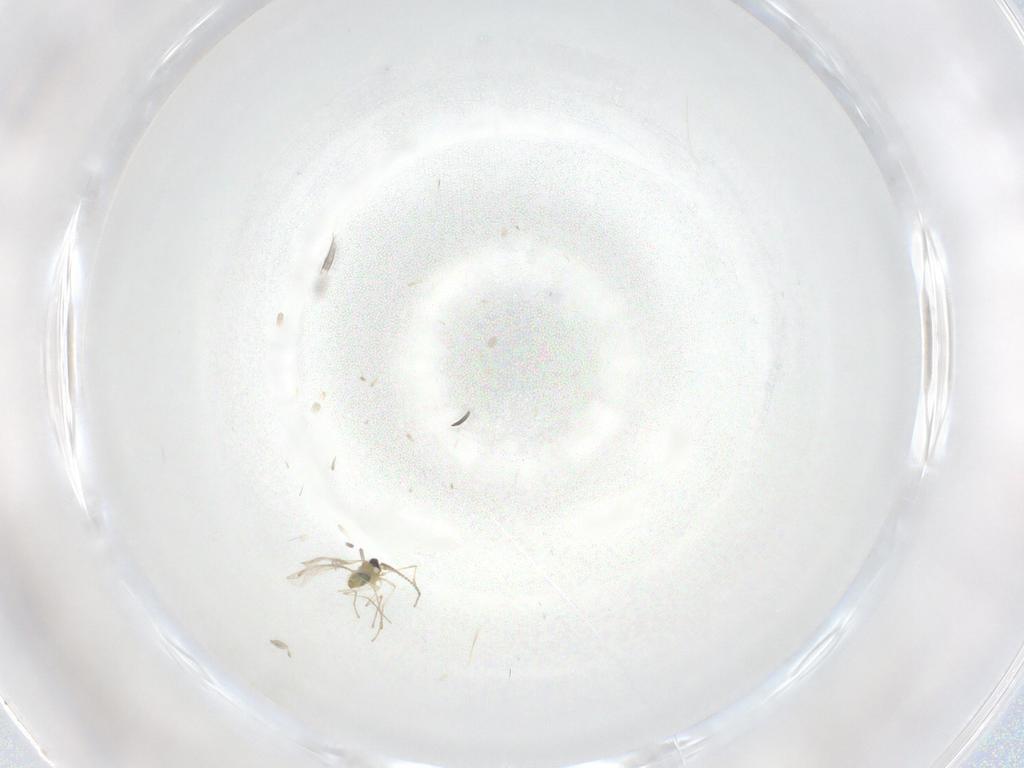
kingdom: Animalia
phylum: Arthropoda
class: Insecta
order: Diptera
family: Cecidomyiidae
